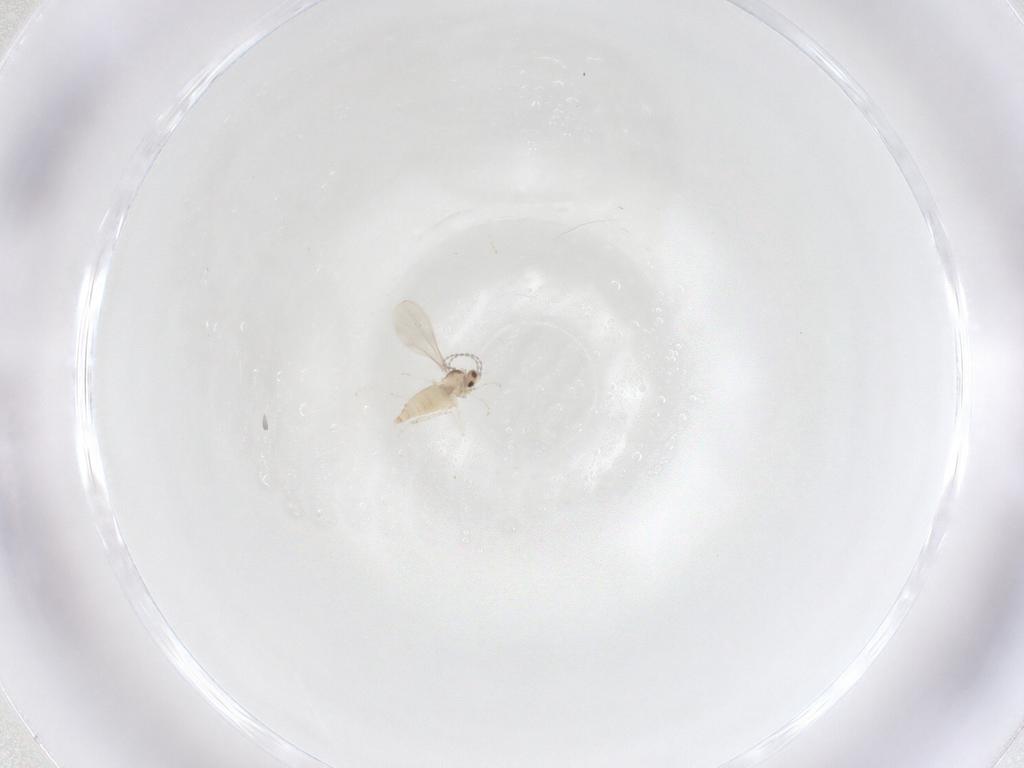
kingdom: Animalia
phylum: Arthropoda
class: Insecta
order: Diptera
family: Cecidomyiidae
